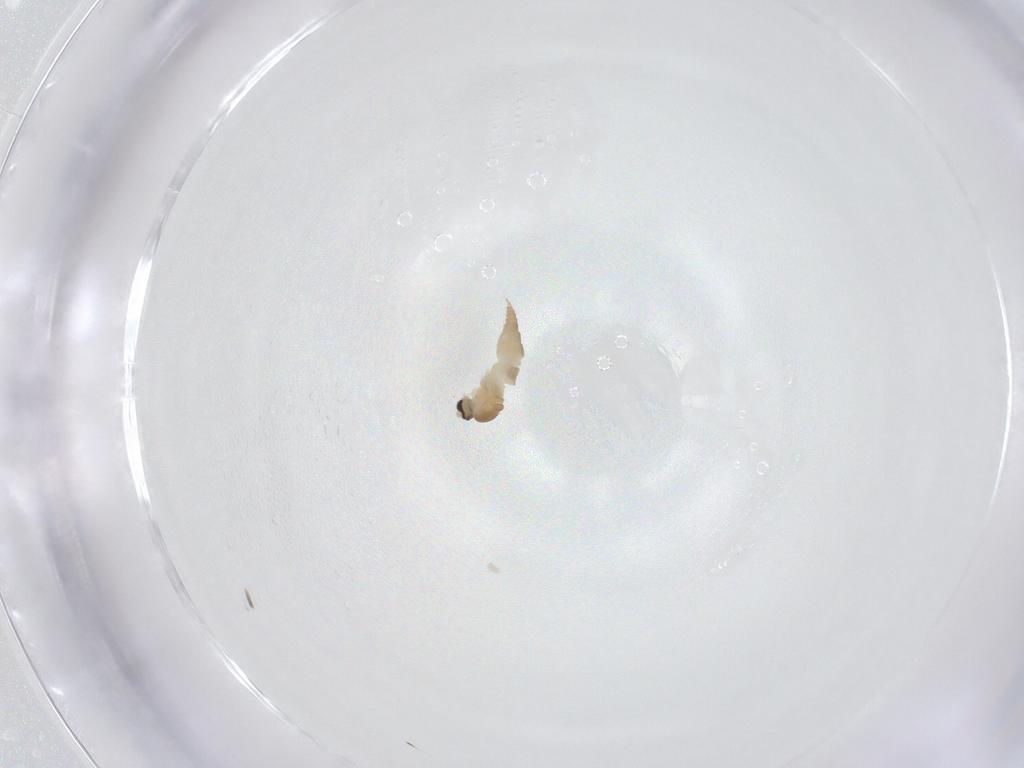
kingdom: Animalia
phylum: Arthropoda
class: Insecta
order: Diptera
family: Cecidomyiidae
